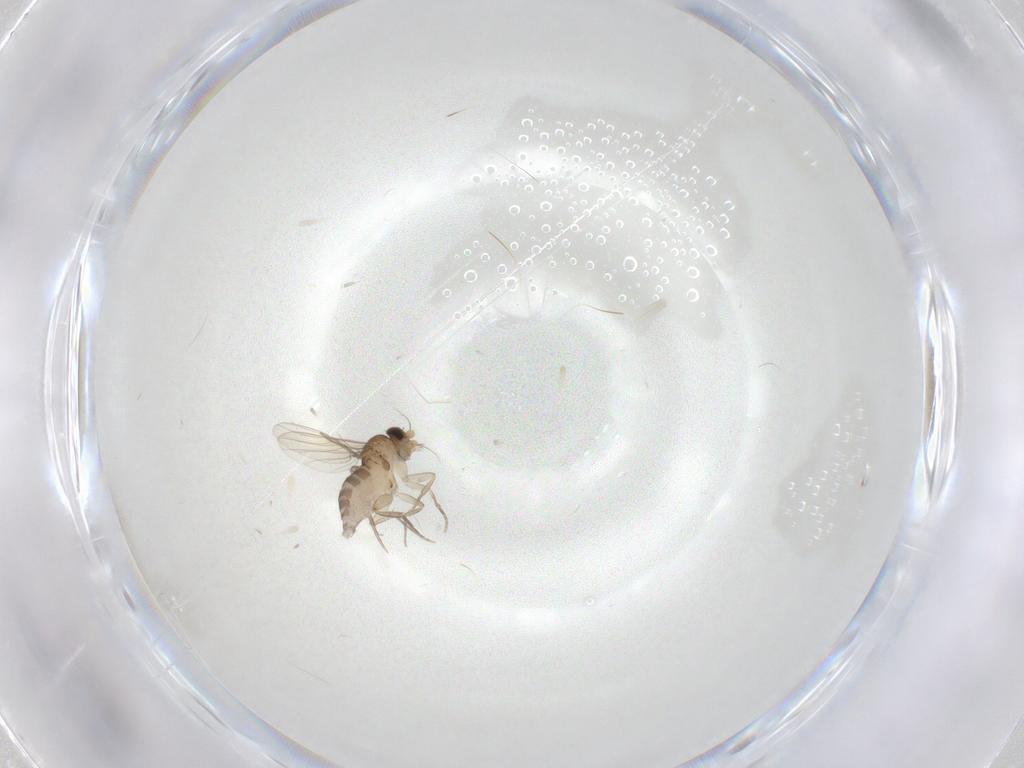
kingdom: Animalia
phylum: Arthropoda
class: Insecta
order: Diptera
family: Phoridae
